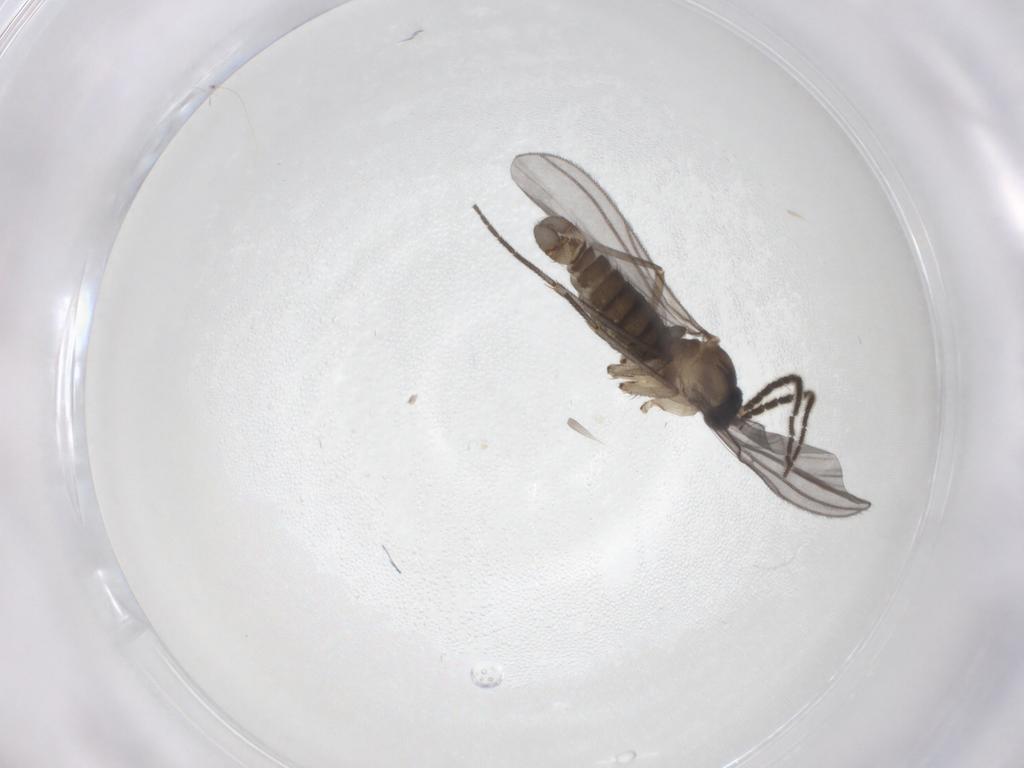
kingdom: Animalia
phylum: Arthropoda
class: Insecta
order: Diptera
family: Sciaridae
